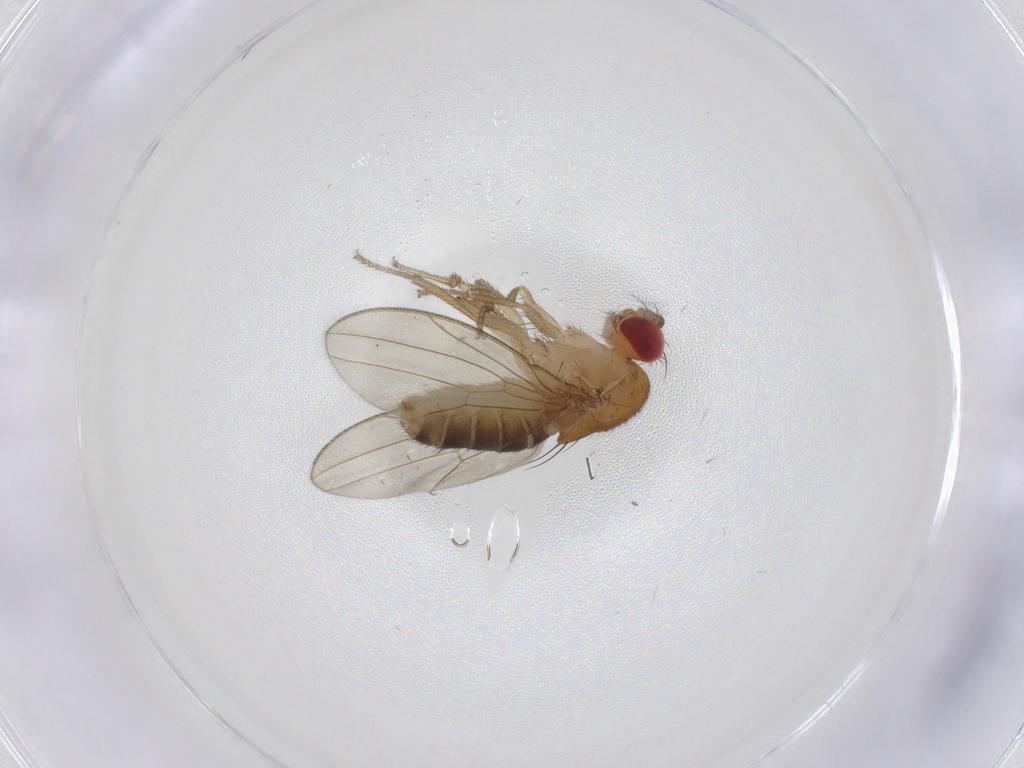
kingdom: Animalia
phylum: Arthropoda
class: Insecta
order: Diptera
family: Drosophilidae
